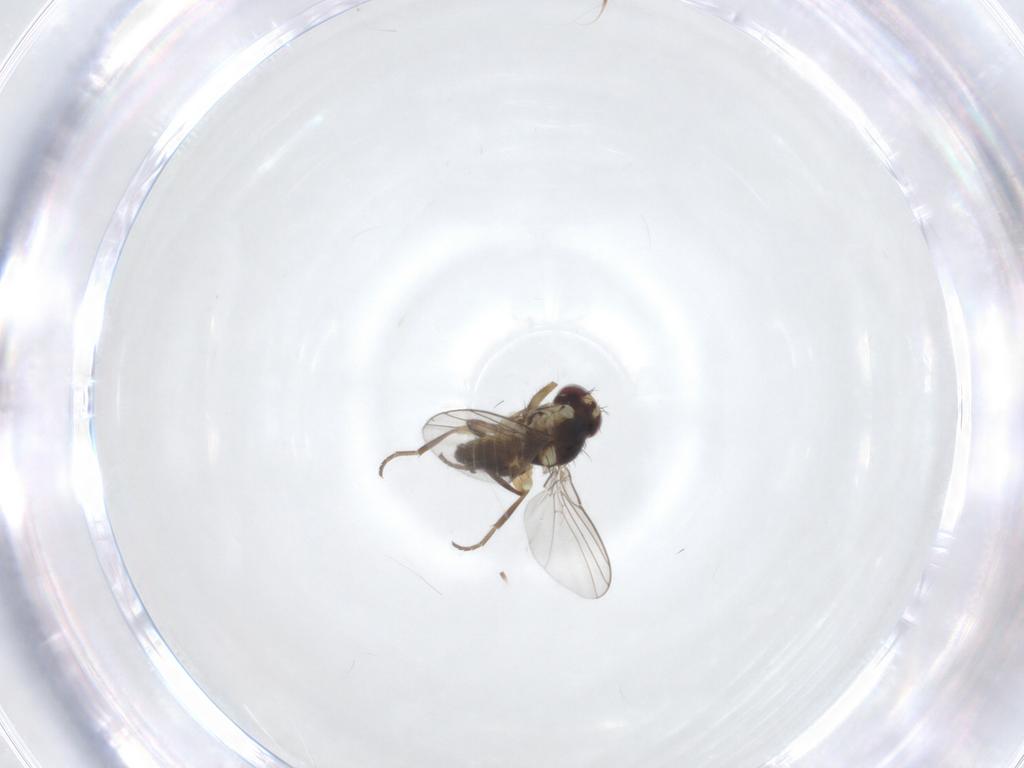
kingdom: Animalia
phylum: Arthropoda
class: Insecta
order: Diptera
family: Agromyzidae
